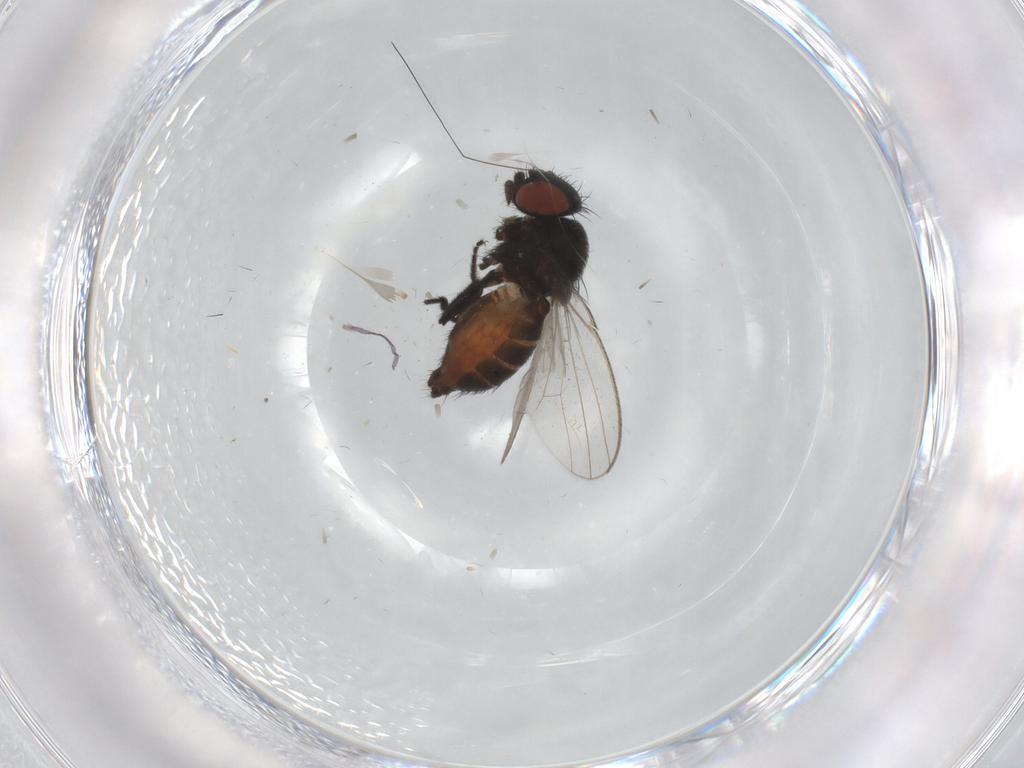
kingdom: Animalia
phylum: Arthropoda
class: Insecta
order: Diptera
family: Milichiidae
